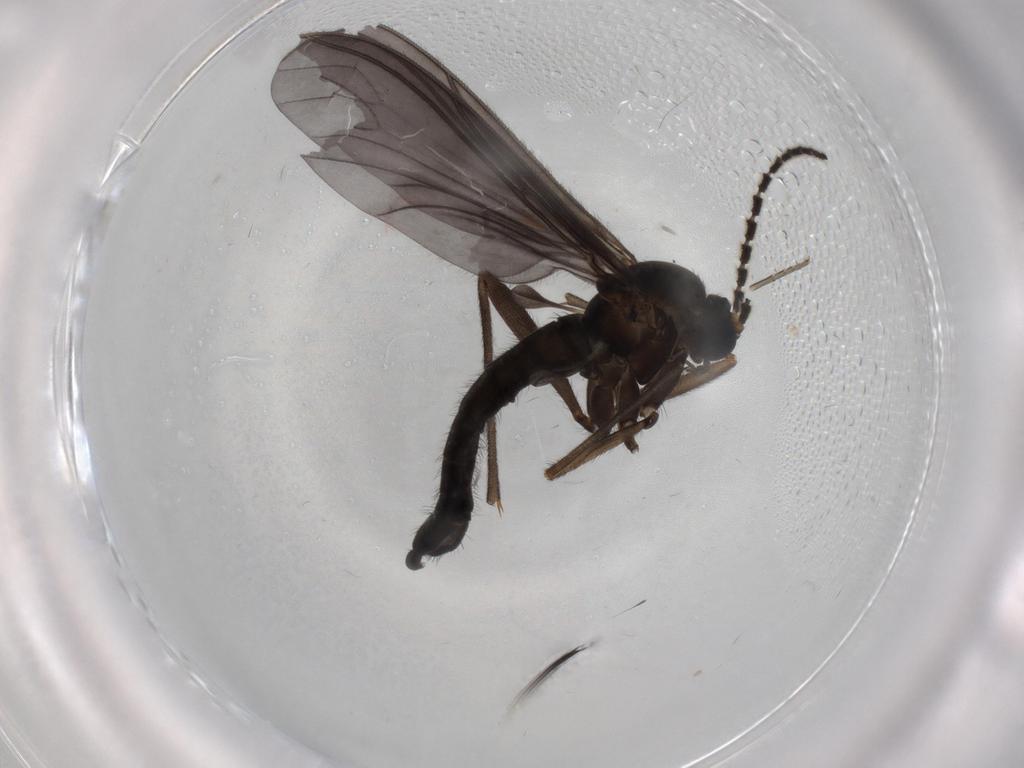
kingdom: Animalia
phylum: Arthropoda
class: Insecta
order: Diptera
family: Sciaridae
